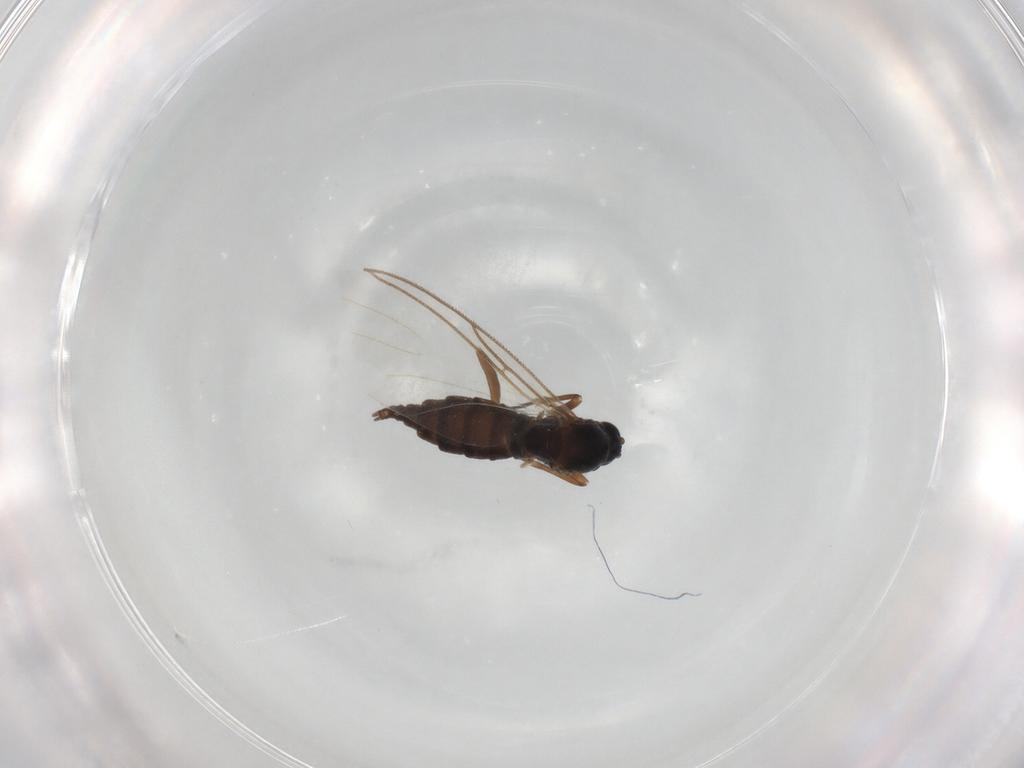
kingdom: Animalia
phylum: Arthropoda
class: Insecta
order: Diptera
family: Sciaridae
